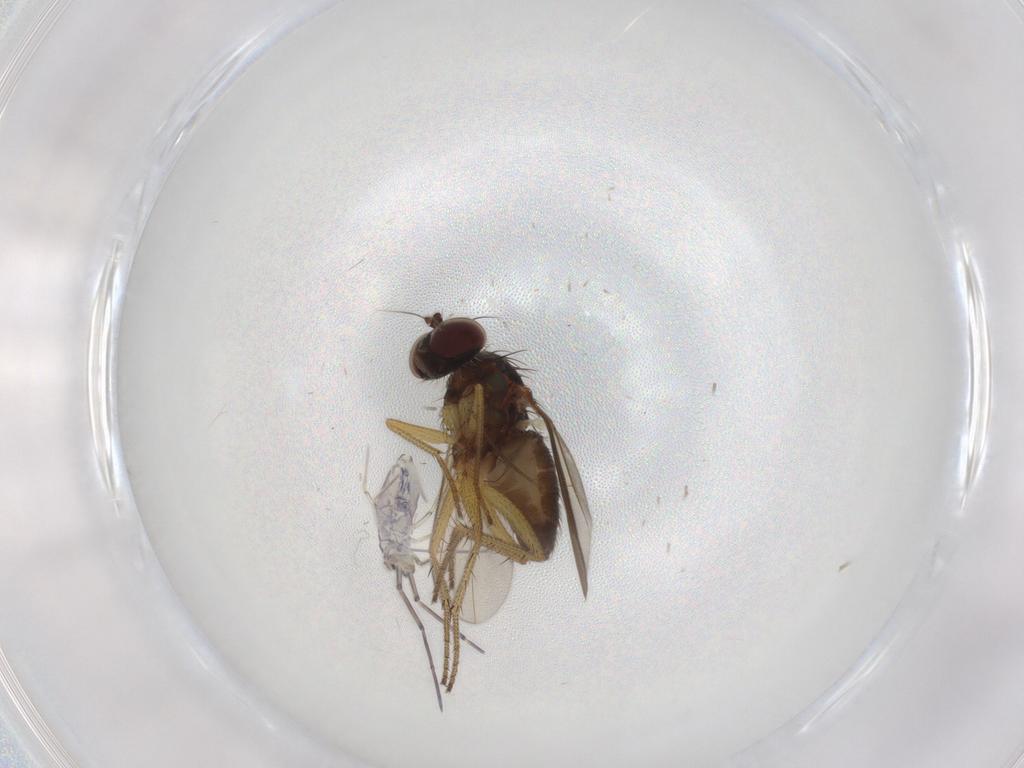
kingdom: Animalia
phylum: Arthropoda
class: Insecta
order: Diptera
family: Dolichopodidae
